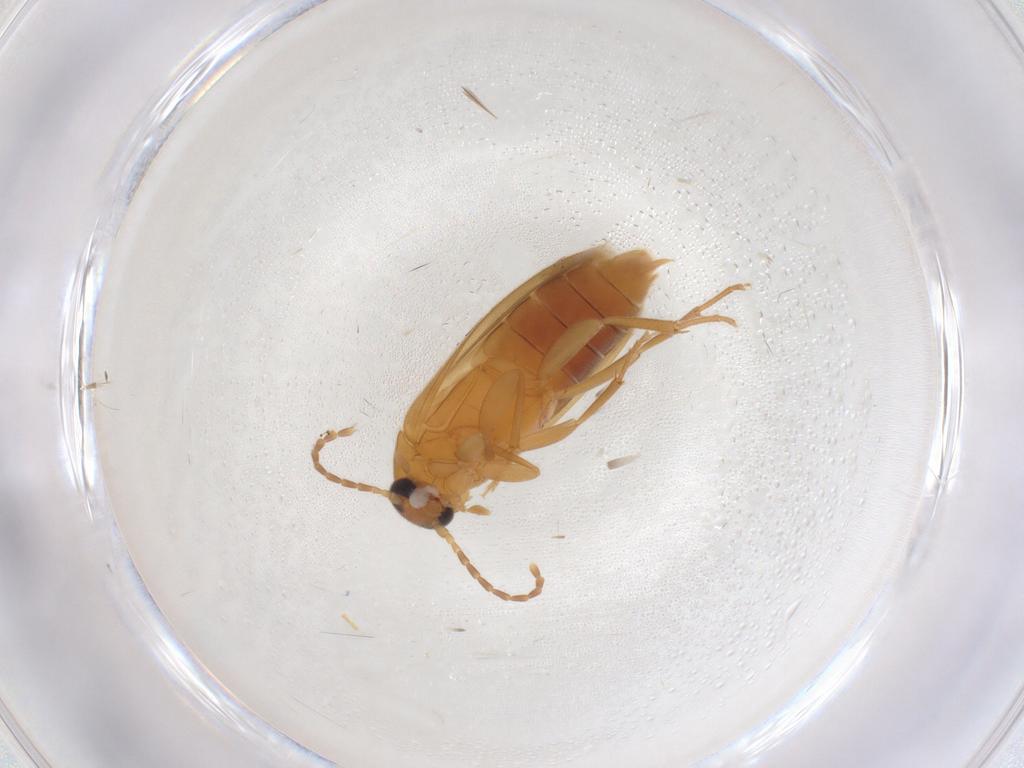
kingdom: Animalia
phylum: Arthropoda
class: Insecta
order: Coleoptera
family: Scraptiidae
